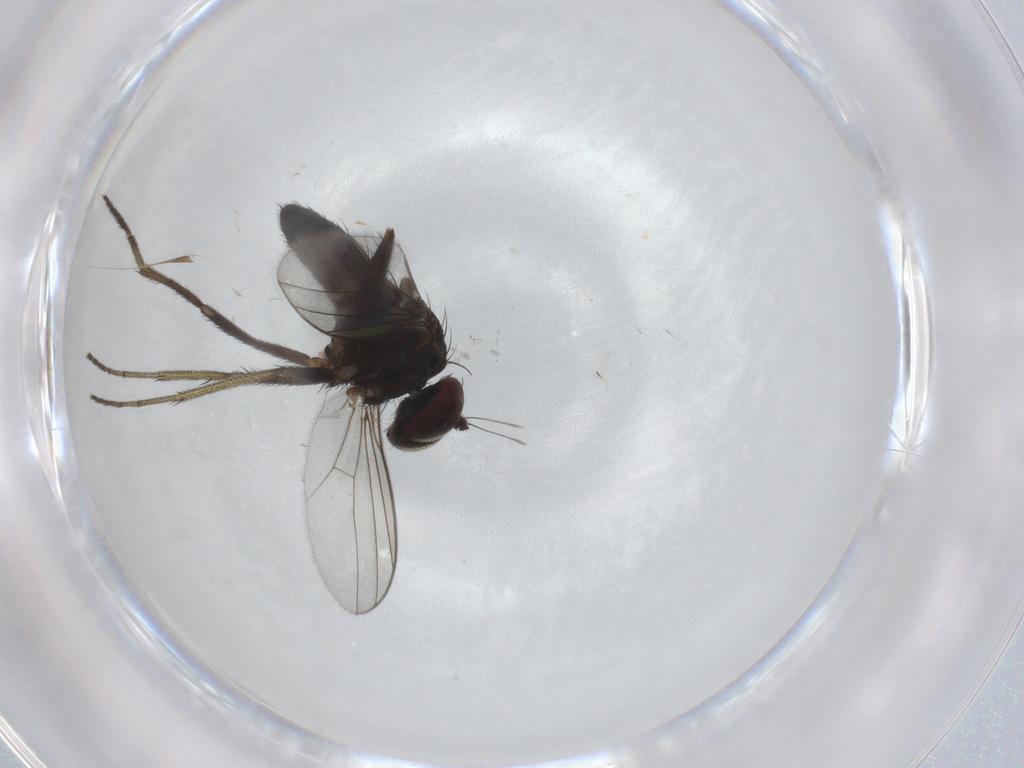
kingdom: Animalia
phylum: Arthropoda
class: Insecta
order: Diptera
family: Chironomidae
